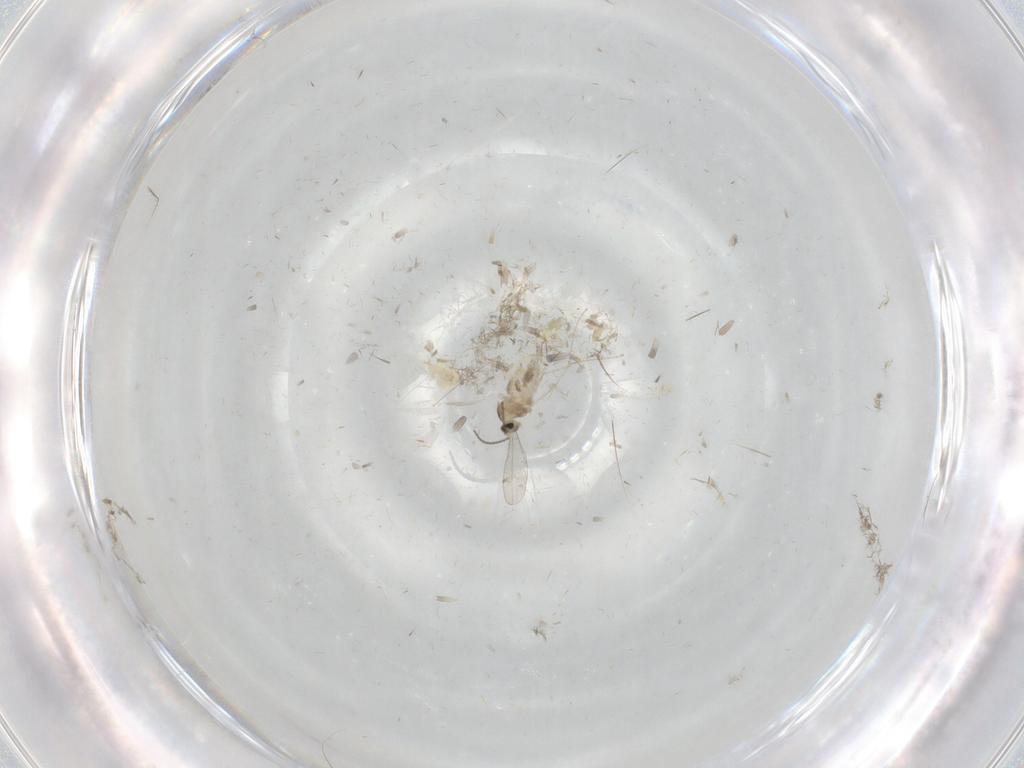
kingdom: Animalia
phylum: Arthropoda
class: Insecta
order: Diptera
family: Cecidomyiidae
